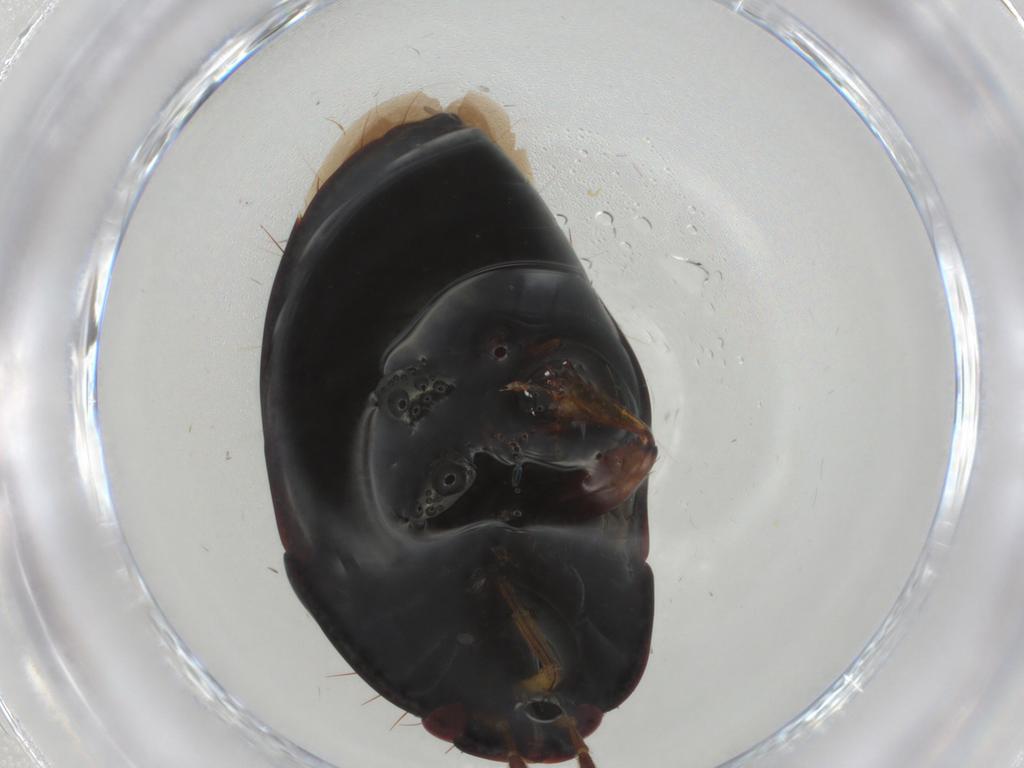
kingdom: Animalia
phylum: Arthropoda
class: Insecta
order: Hemiptera
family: Cydnidae
